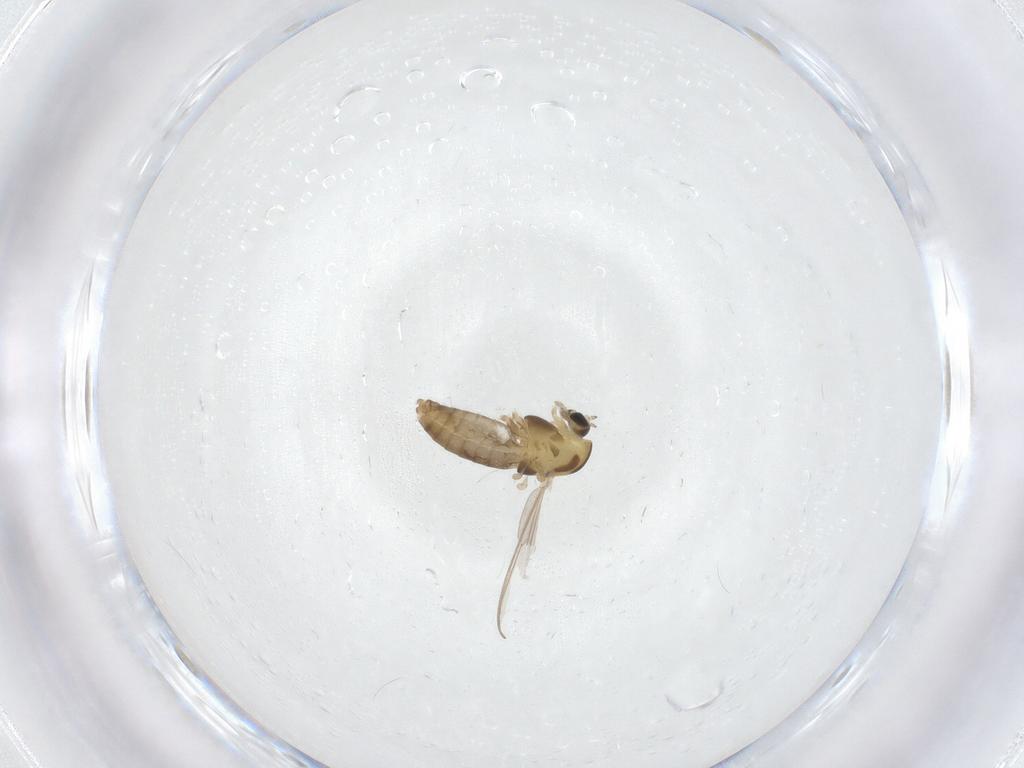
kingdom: Animalia
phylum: Arthropoda
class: Insecta
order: Diptera
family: Chironomidae
